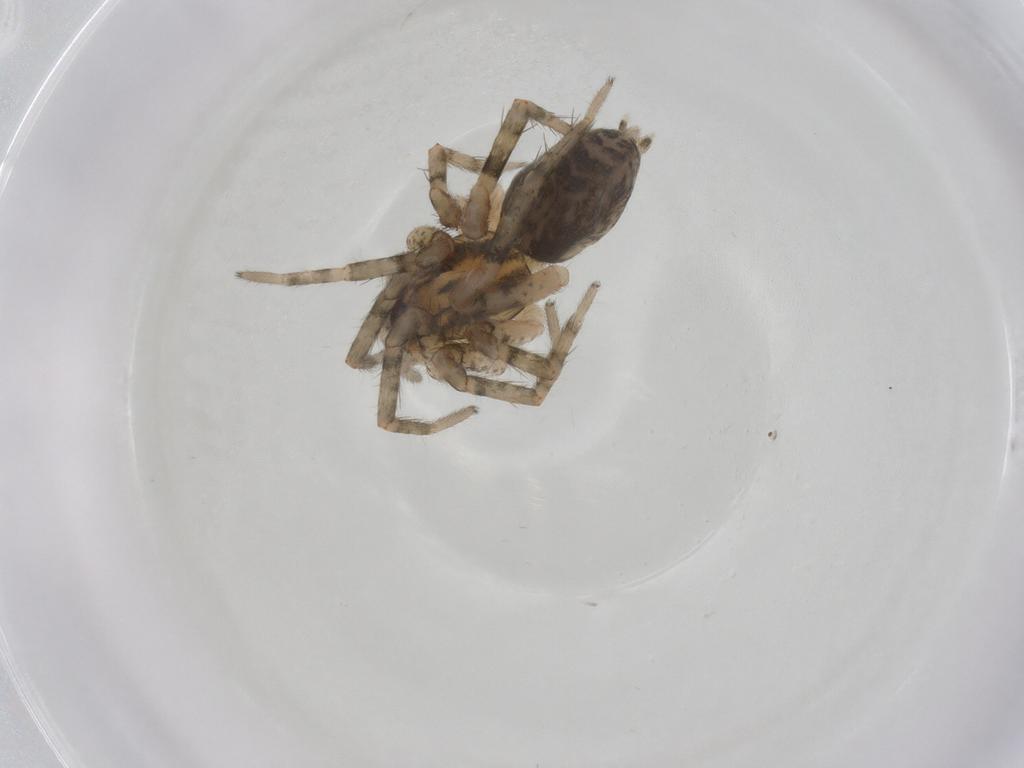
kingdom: Animalia
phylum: Arthropoda
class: Arachnida
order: Araneae
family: Anyphaenidae
